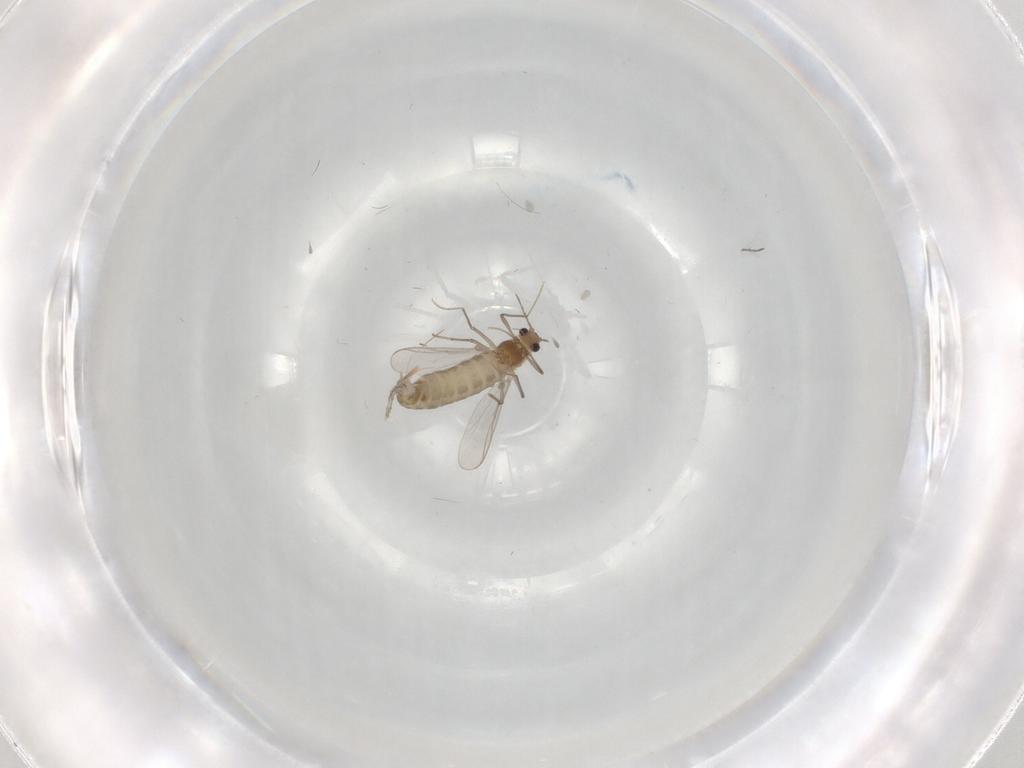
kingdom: Animalia
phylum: Arthropoda
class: Insecta
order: Diptera
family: Chironomidae
